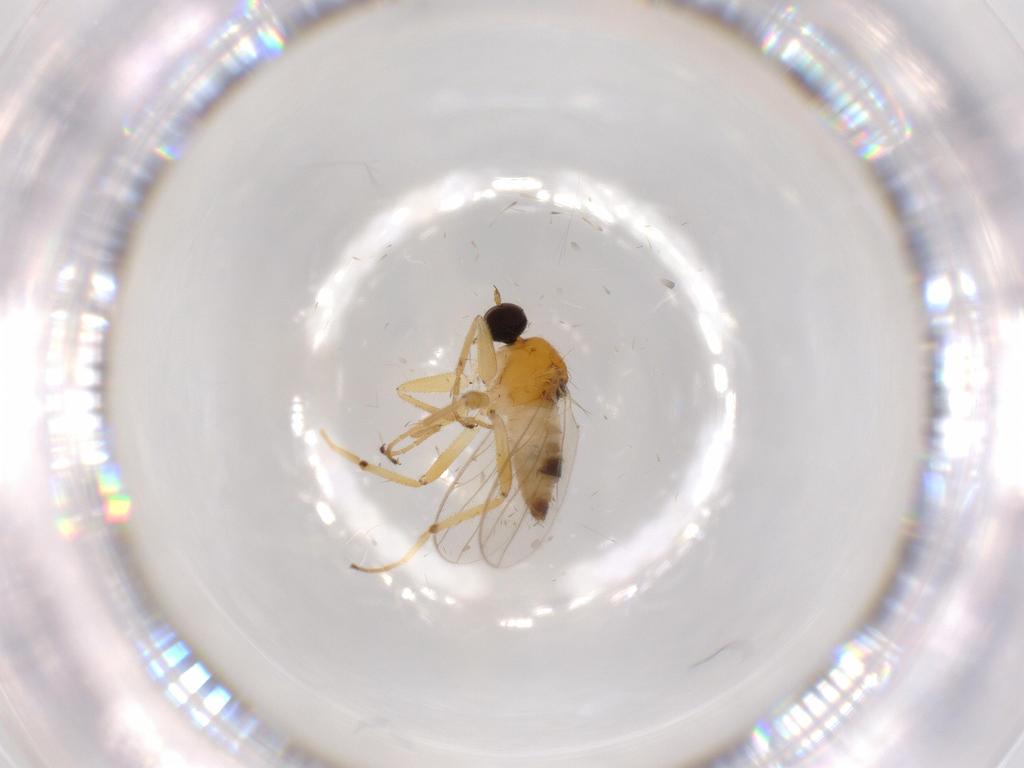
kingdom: Animalia
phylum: Arthropoda
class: Insecta
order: Diptera
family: Hybotidae
